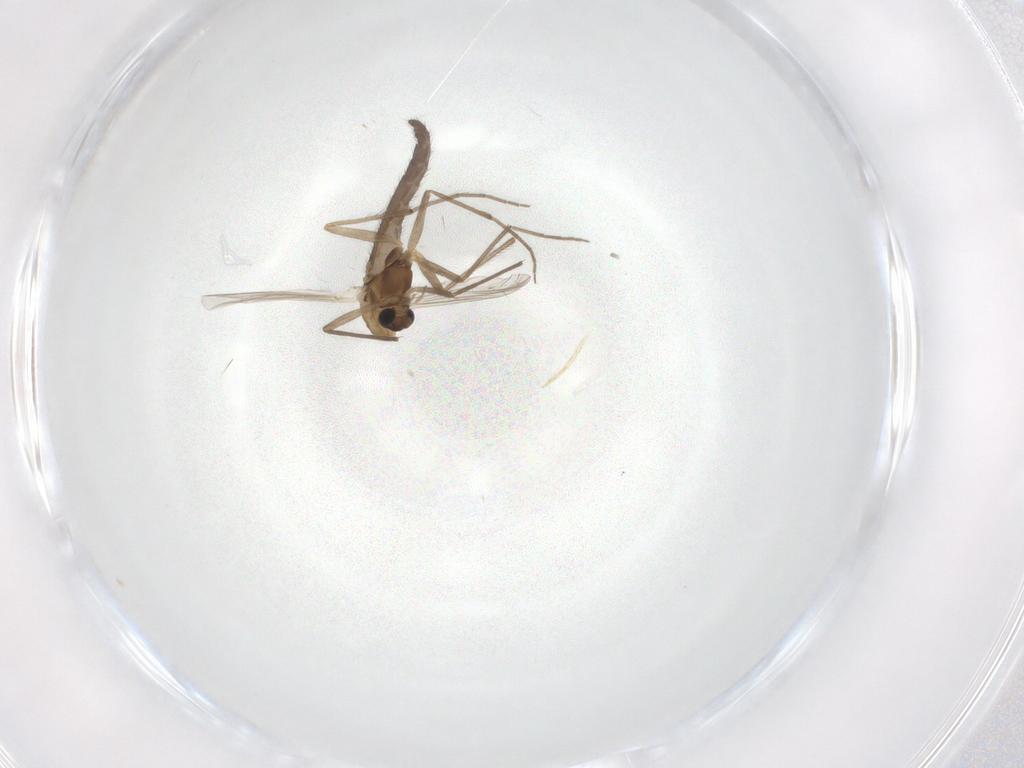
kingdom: Animalia
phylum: Arthropoda
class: Insecta
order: Diptera
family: Chironomidae
